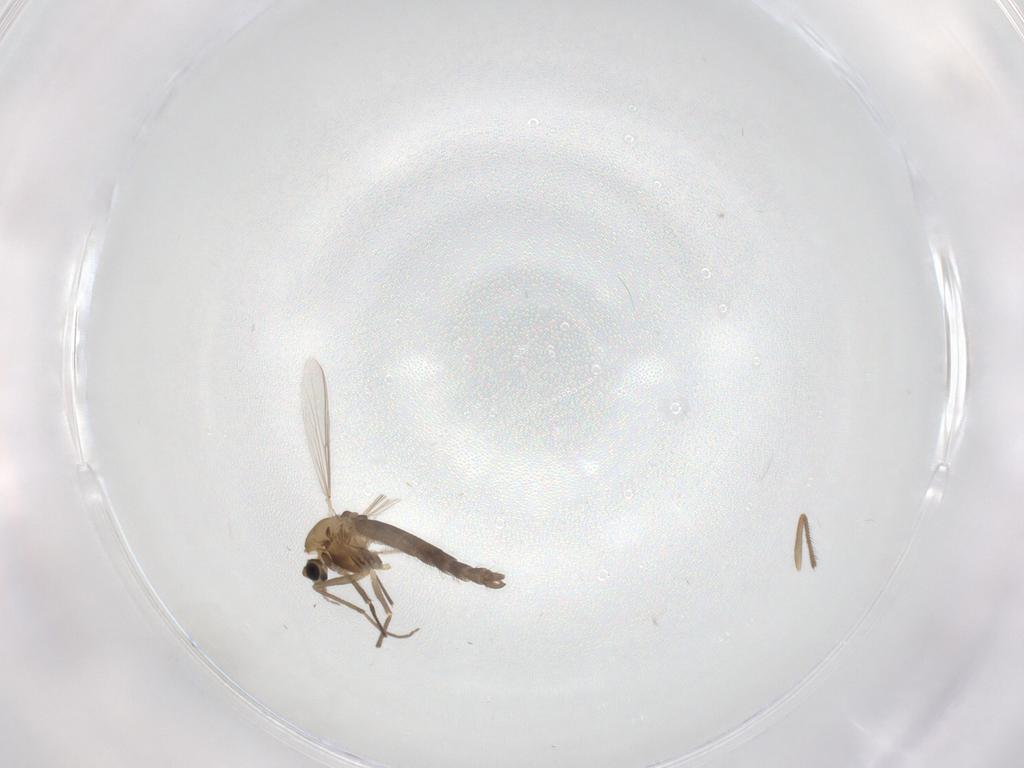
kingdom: Animalia
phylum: Arthropoda
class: Insecta
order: Diptera
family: Chironomidae
